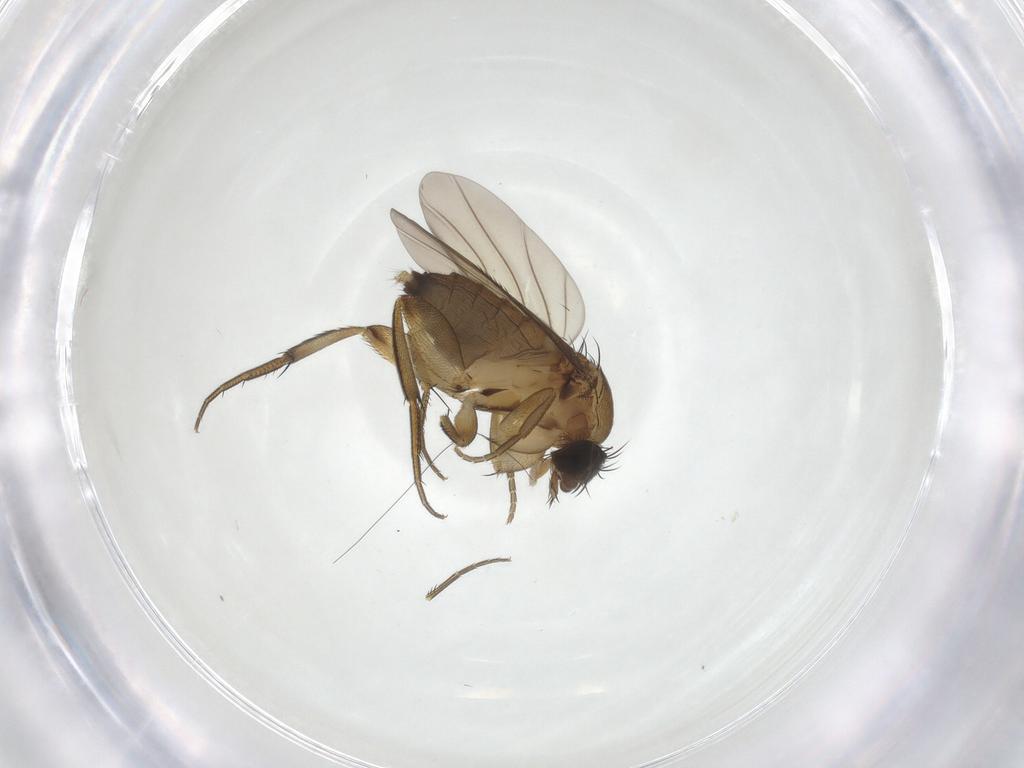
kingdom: Animalia
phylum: Arthropoda
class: Insecta
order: Diptera
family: Phoridae
